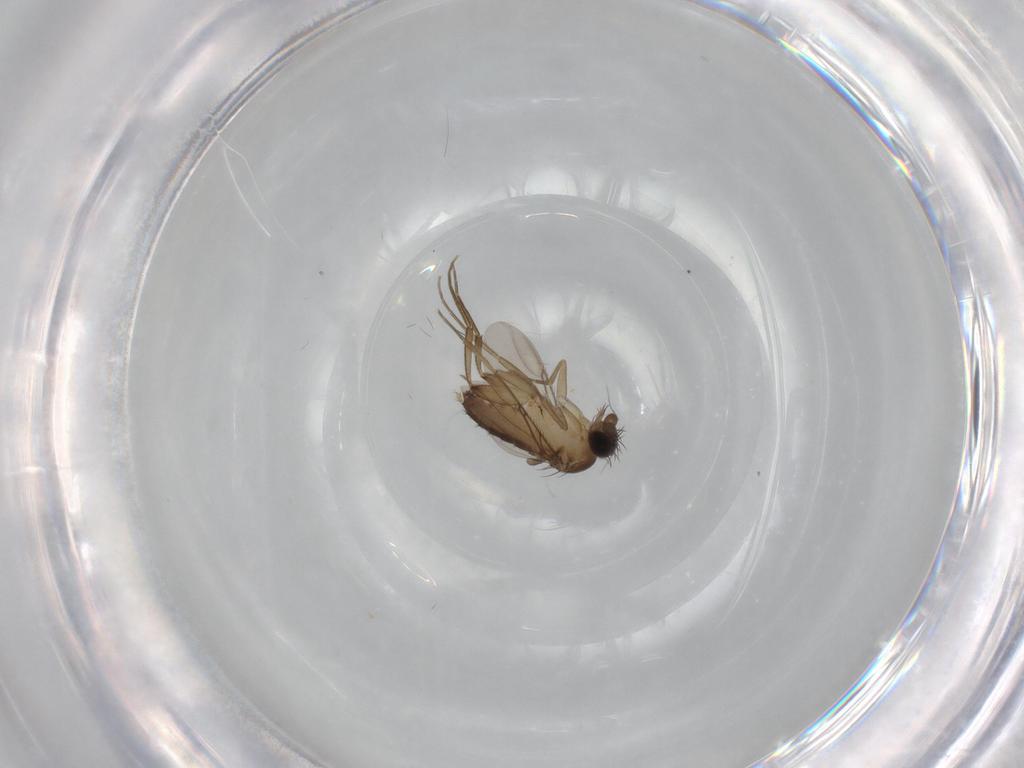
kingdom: Animalia
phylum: Arthropoda
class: Insecta
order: Diptera
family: Phoridae
